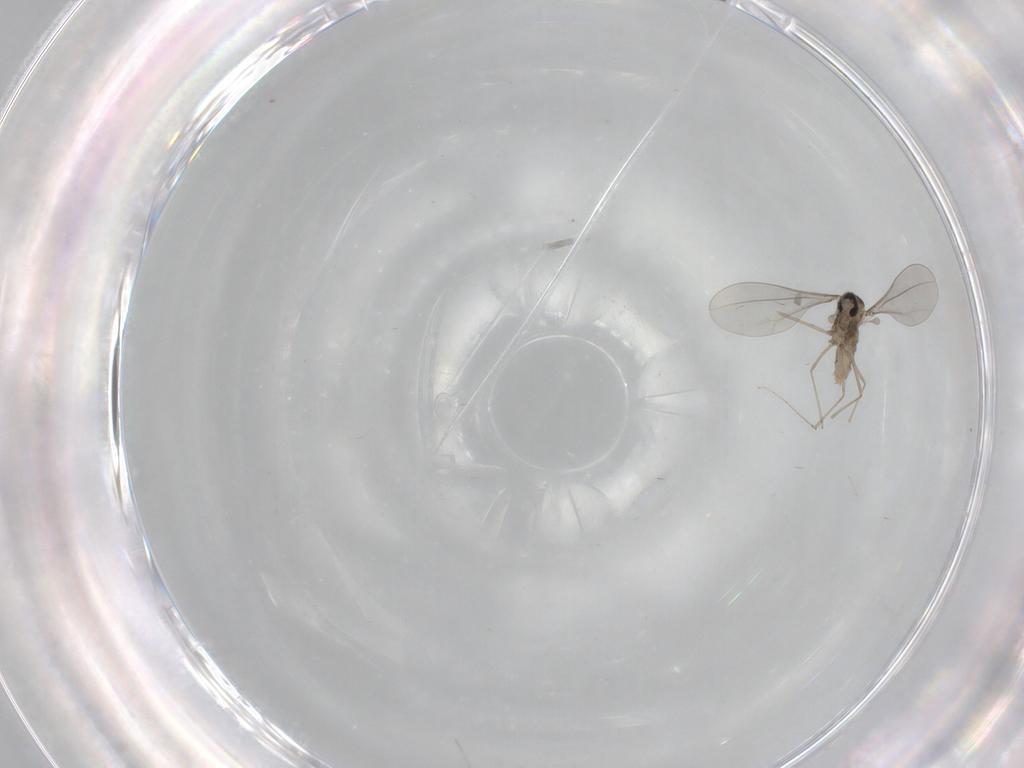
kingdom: Animalia
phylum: Arthropoda
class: Insecta
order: Diptera
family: Cecidomyiidae
